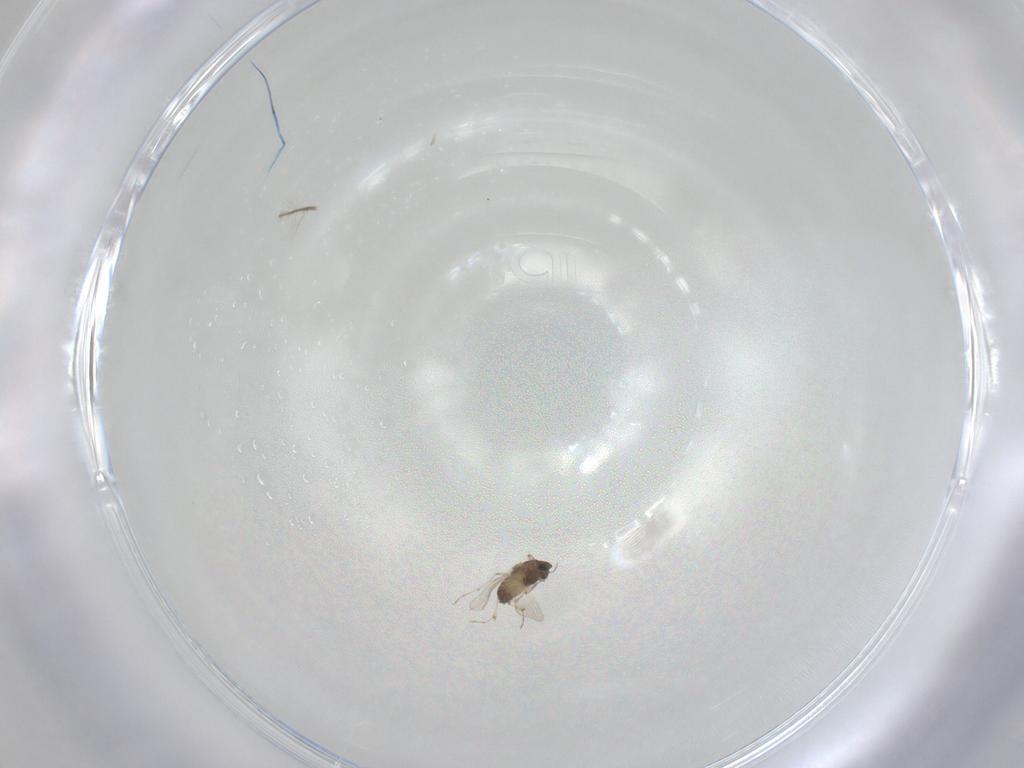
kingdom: Animalia
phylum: Arthropoda
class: Insecta
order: Diptera
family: Chironomidae
